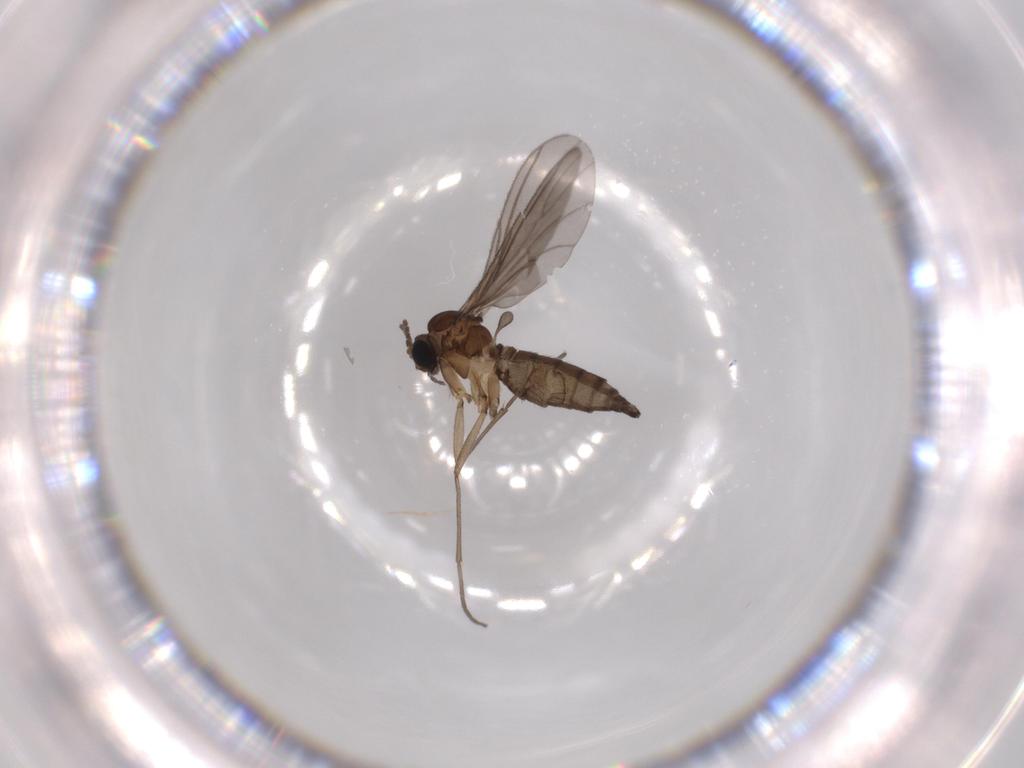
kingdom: Animalia
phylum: Arthropoda
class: Insecta
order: Diptera
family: Sciaridae
